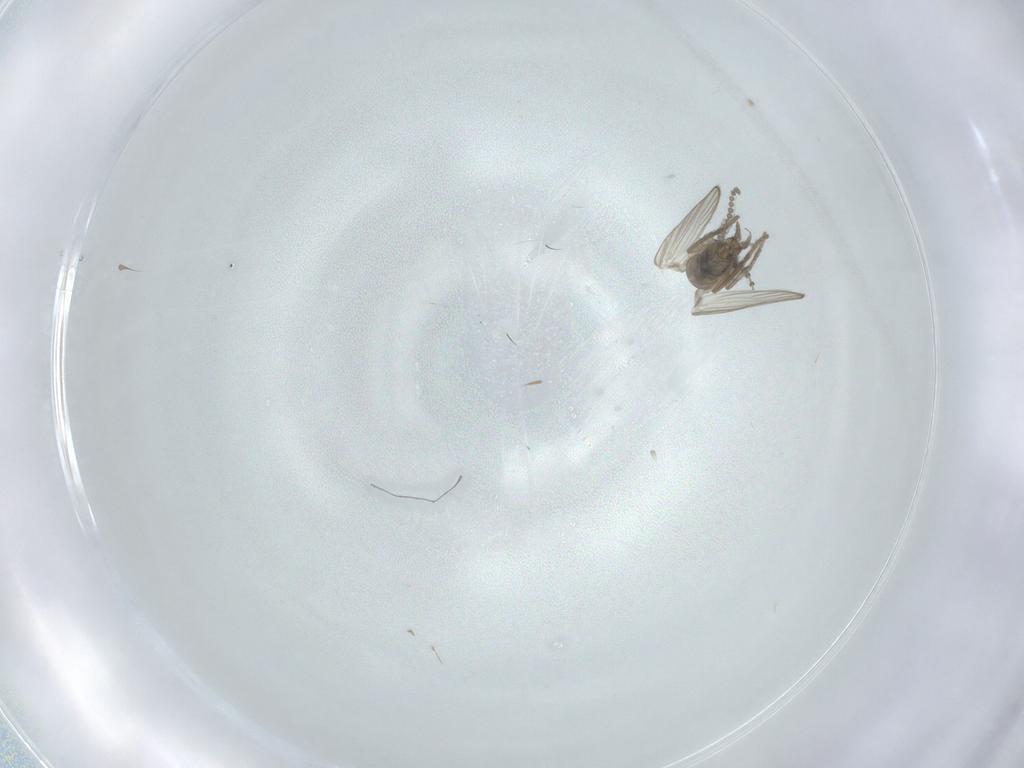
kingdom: Animalia
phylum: Arthropoda
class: Insecta
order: Diptera
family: Psychodidae
